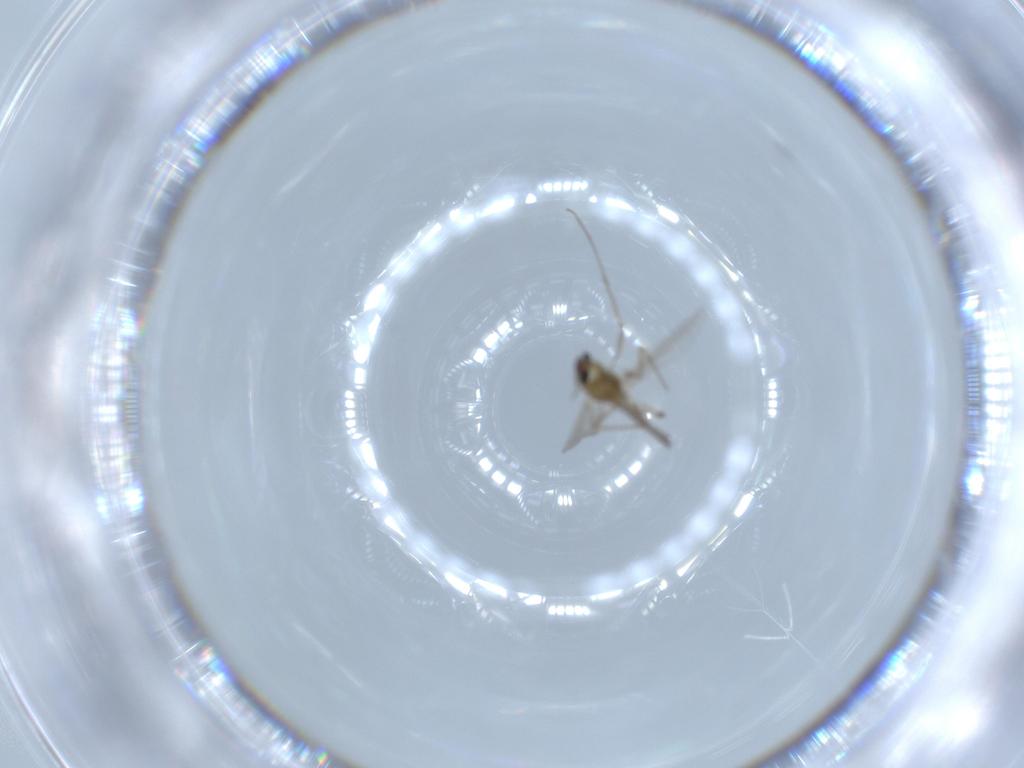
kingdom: Animalia
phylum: Arthropoda
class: Insecta
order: Diptera
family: Chironomidae
